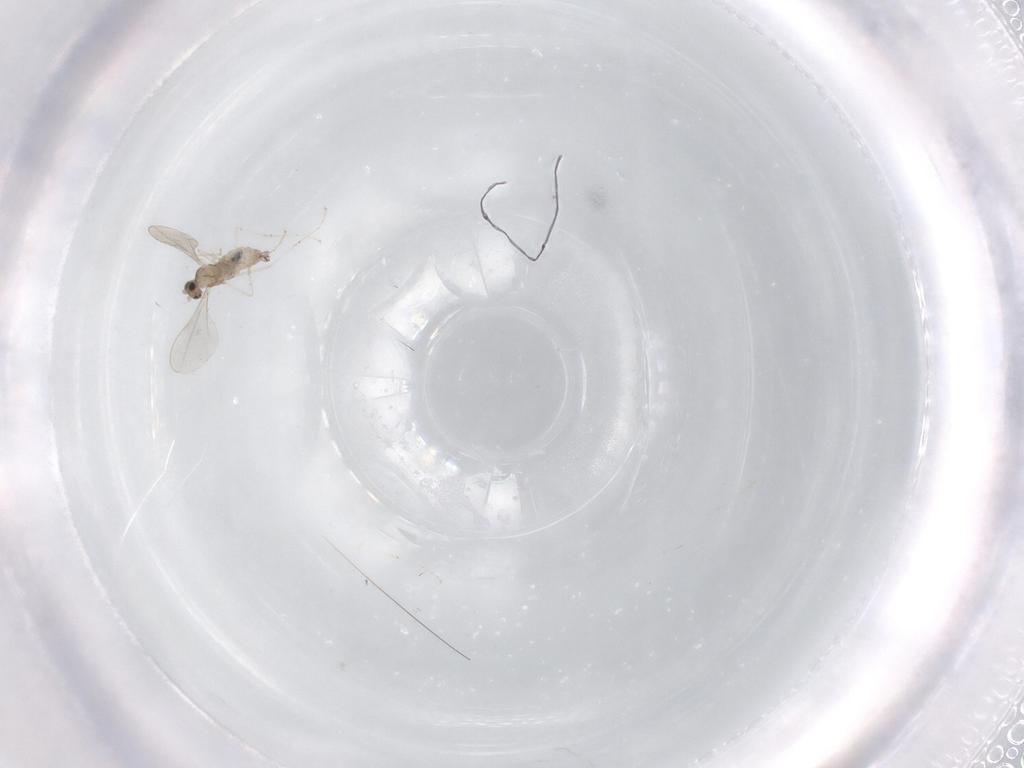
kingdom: Animalia
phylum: Arthropoda
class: Insecta
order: Diptera
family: Cecidomyiidae
